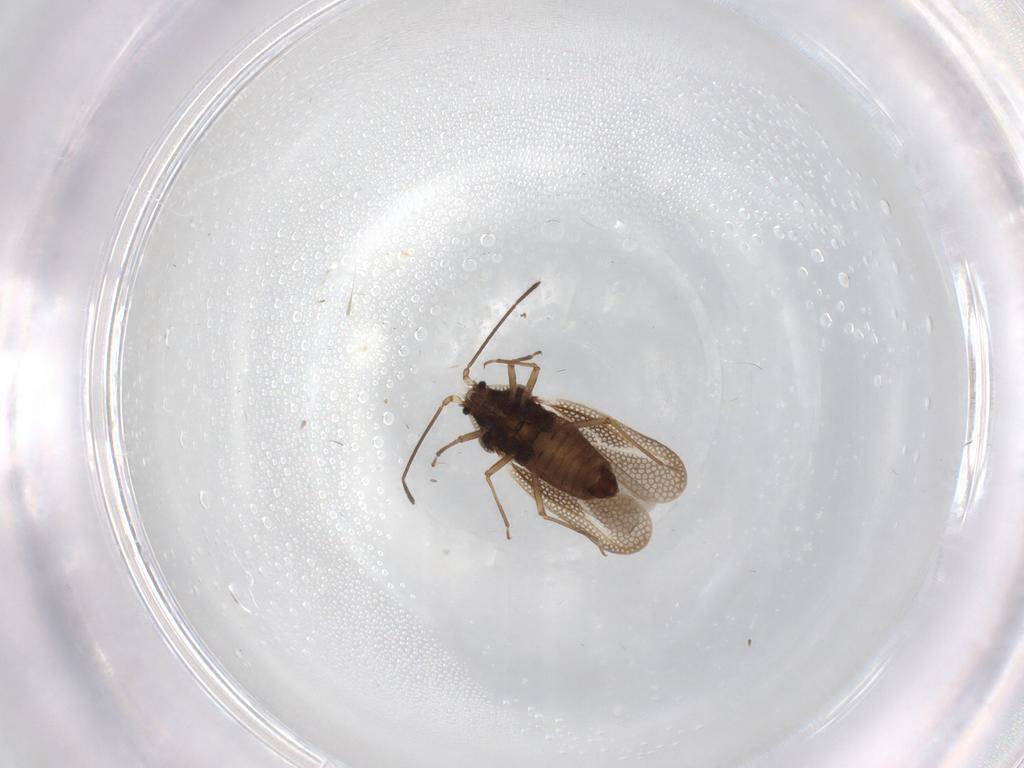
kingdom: Animalia
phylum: Arthropoda
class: Insecta
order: Hemiptera
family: Tingidae
